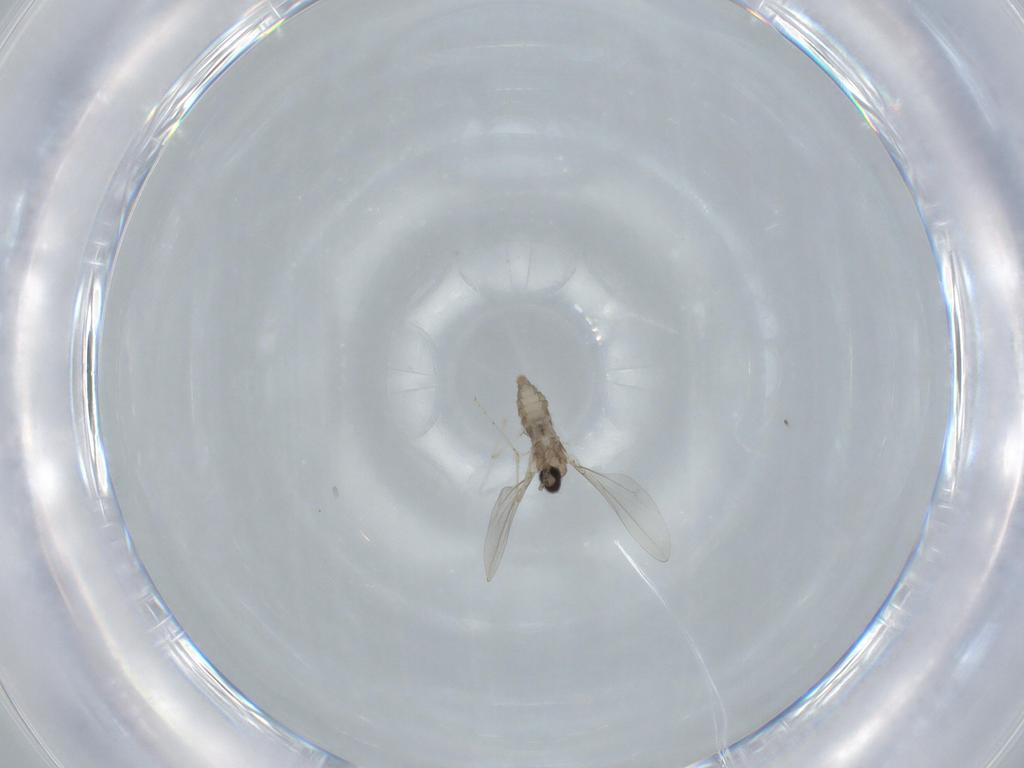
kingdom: Animalia
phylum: Arthropoda
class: Insecta
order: Diptera
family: Cecidomyiidae
